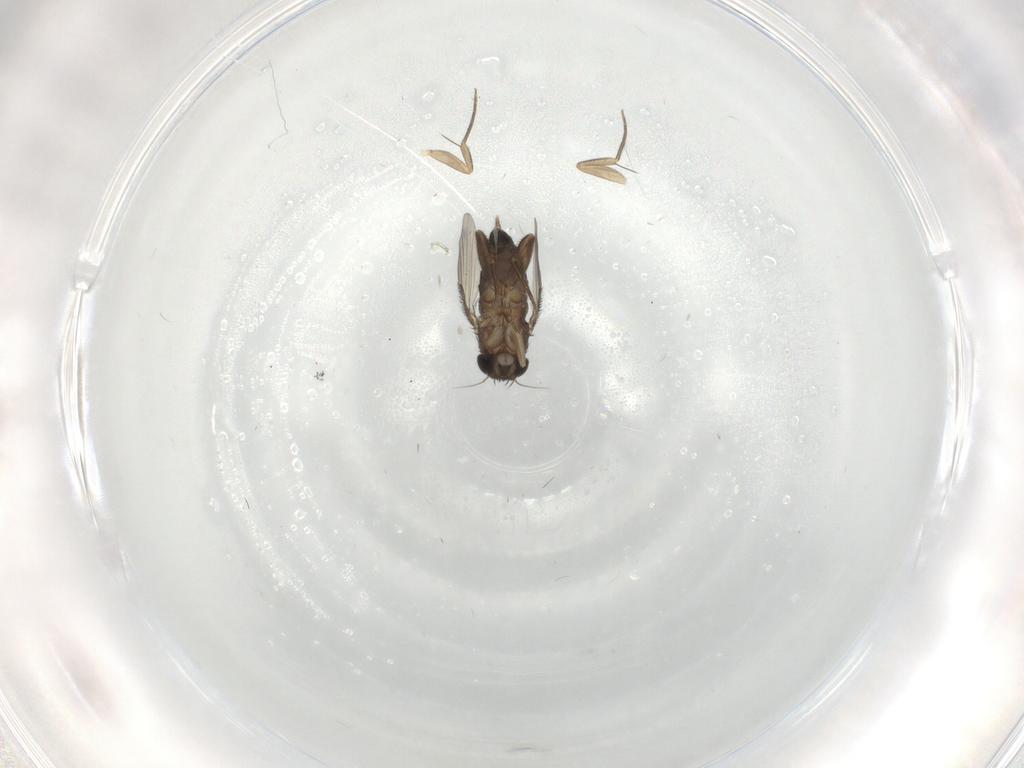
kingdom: Animalia
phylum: Arthropoda
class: Insecta
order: Diptera
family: Phoridae
